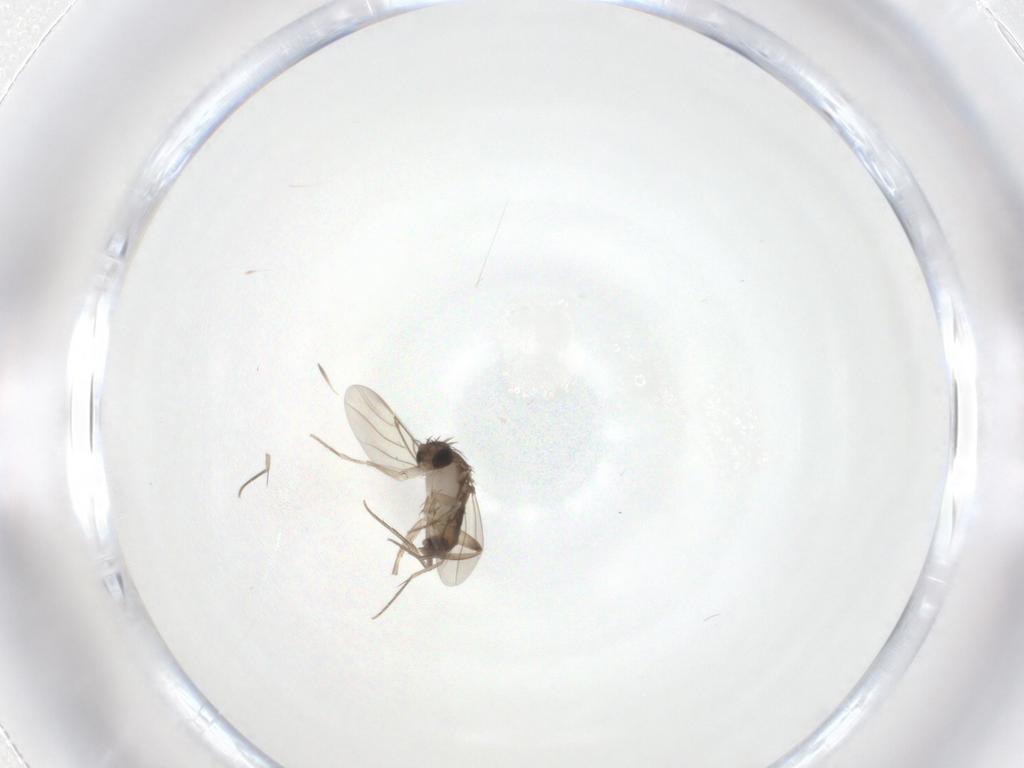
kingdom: Animalia
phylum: Arthropoda
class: Insecta
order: Diptera
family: Phoridae
